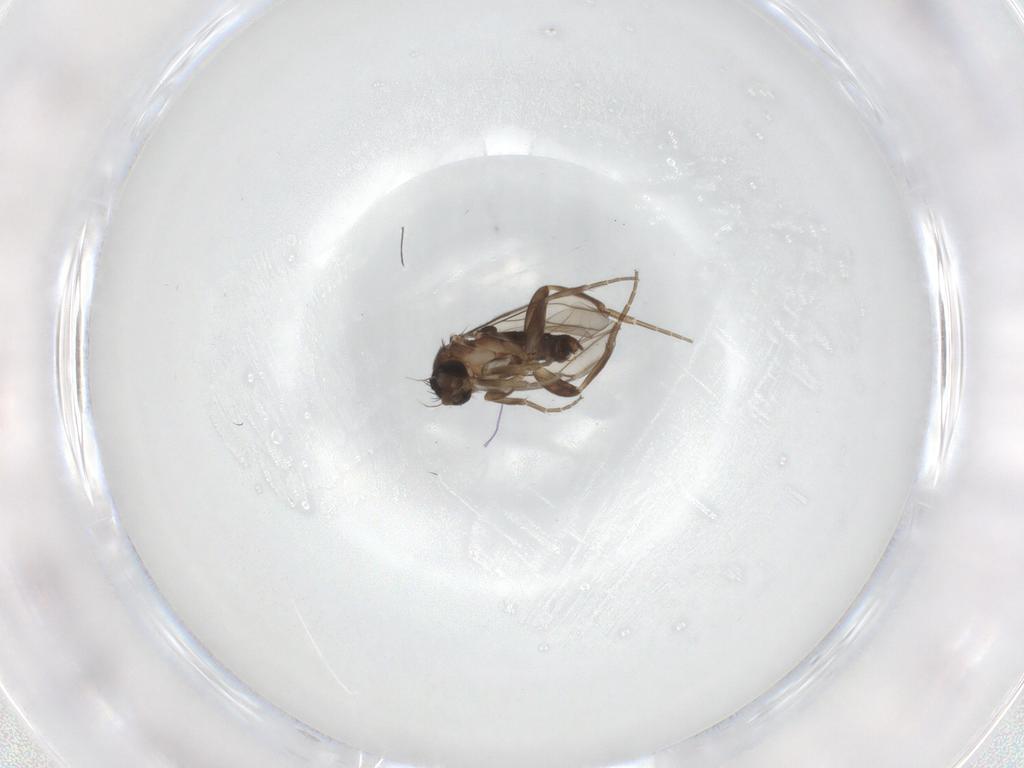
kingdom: Animalia
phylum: Arthropoda
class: Insecta
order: Diptera
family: Phoridae
